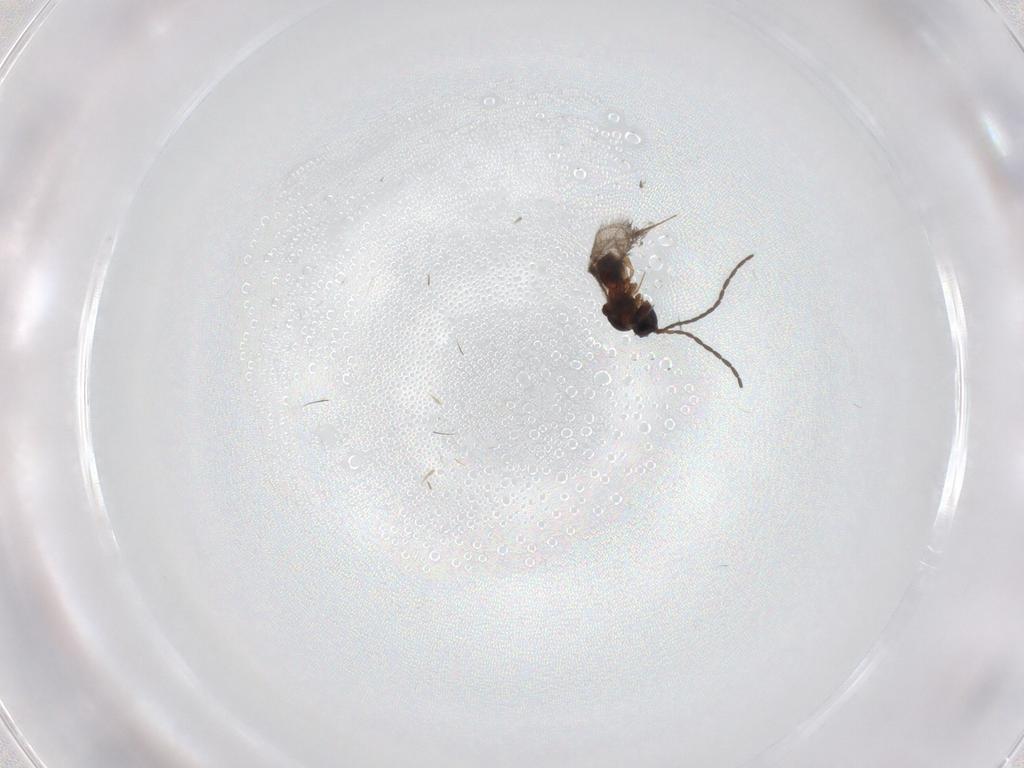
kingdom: Animalia
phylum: Arthropoda
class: Insecta
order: Hymenoptera
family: Figitidae
